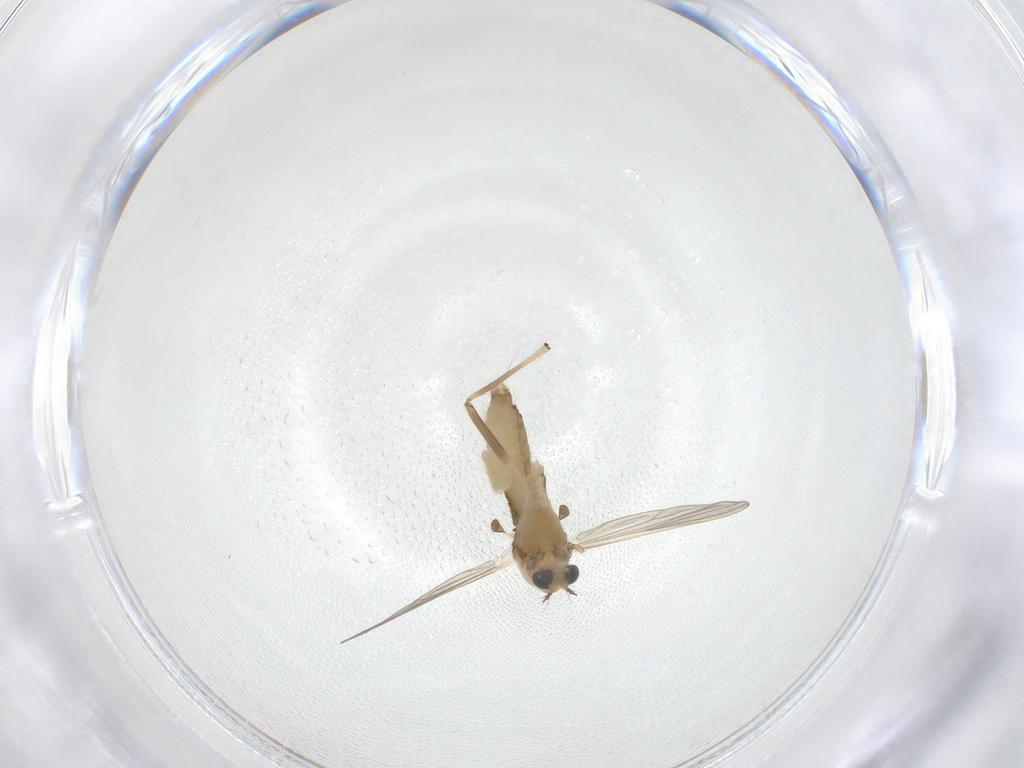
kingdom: Animalia
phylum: Arthropoda
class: Insecta
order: Diptera
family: Chironomidae
